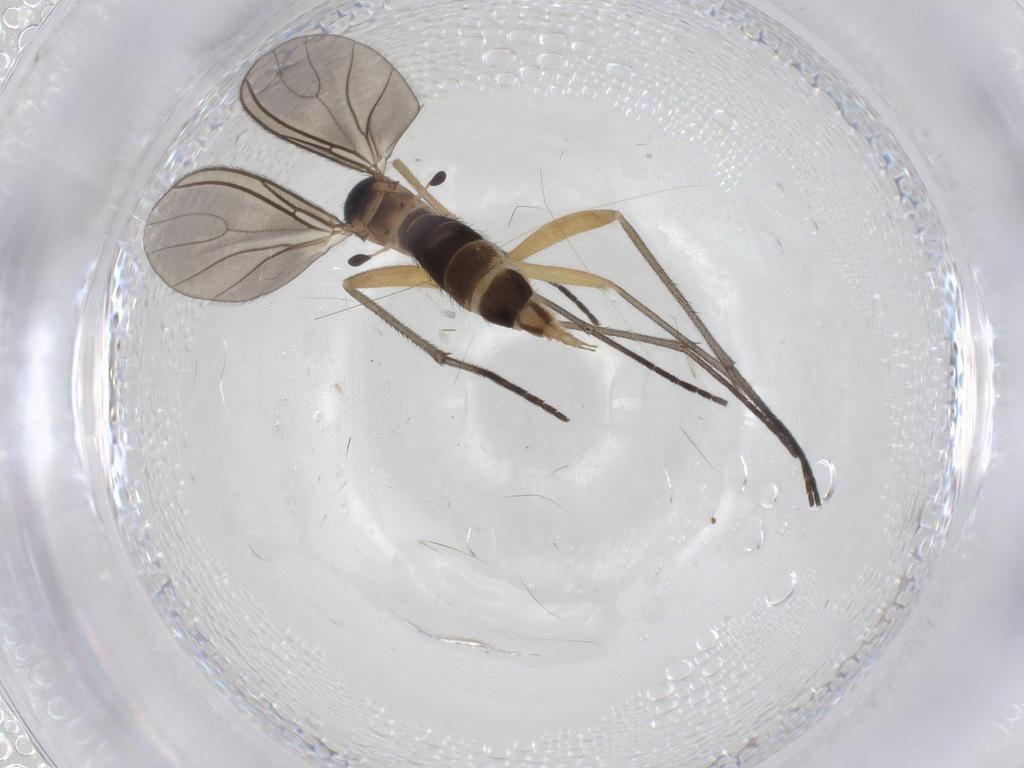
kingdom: Animalia
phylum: Arthropoda
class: Insecta
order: Diptera
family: Sciaridae
